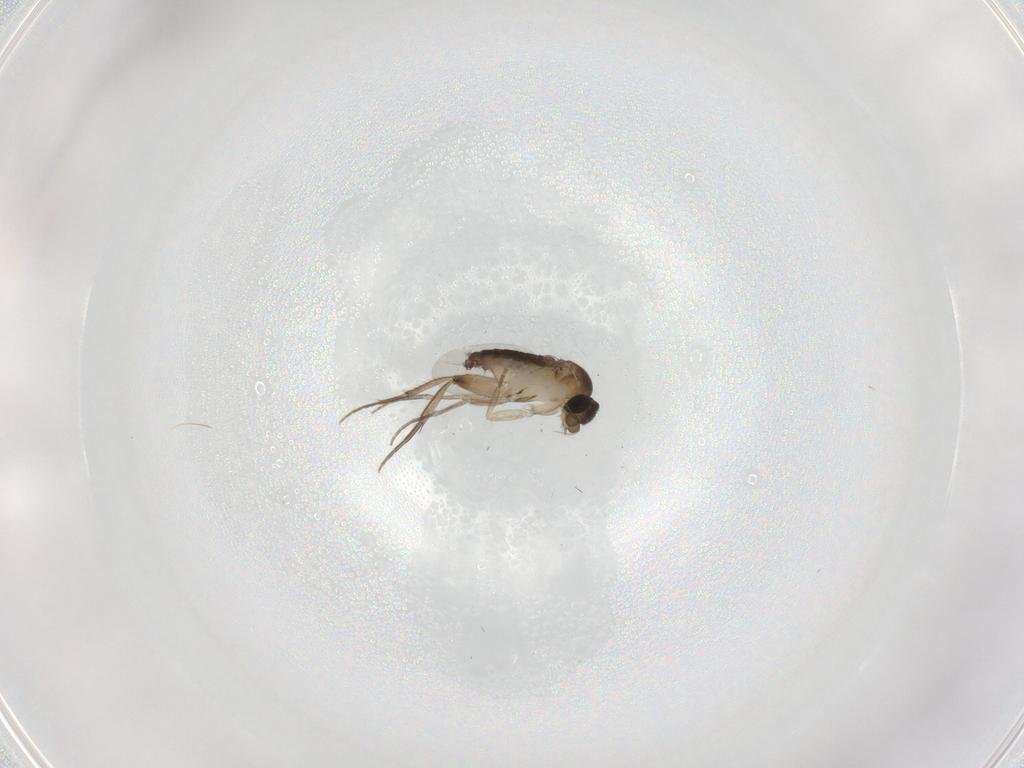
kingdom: Animalia
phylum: Arthropoda
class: Insecta
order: Diptera
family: Phoridae
